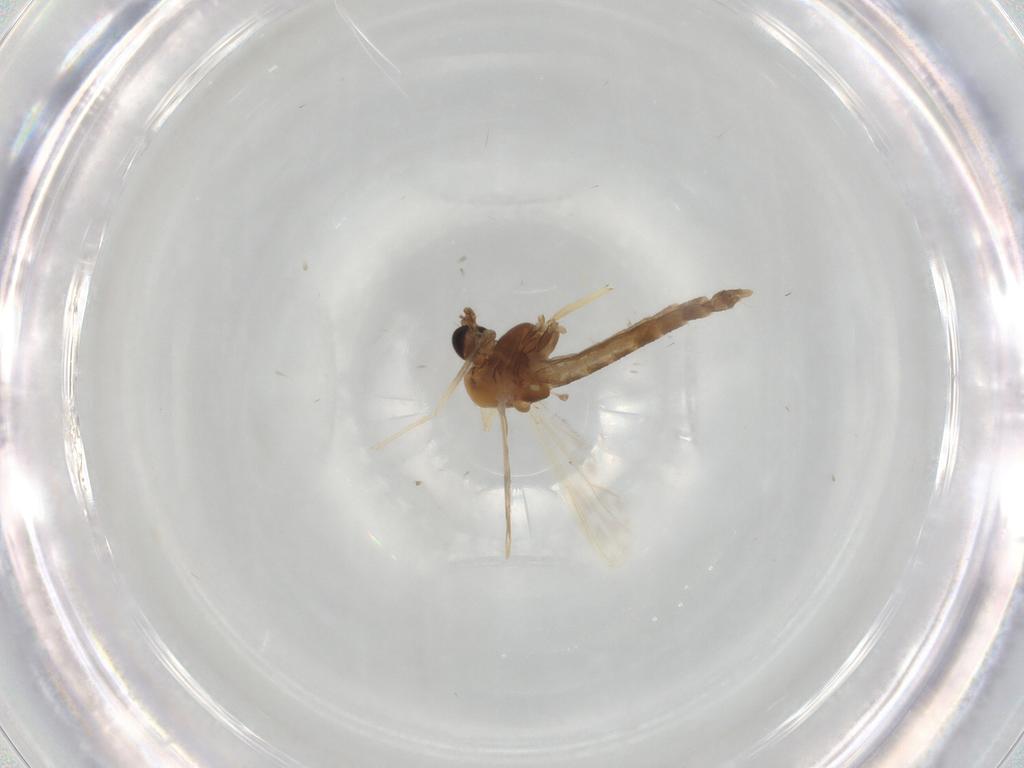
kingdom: Animalia
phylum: Arthropoda
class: Insecta
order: Diptera
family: Chironomidae
